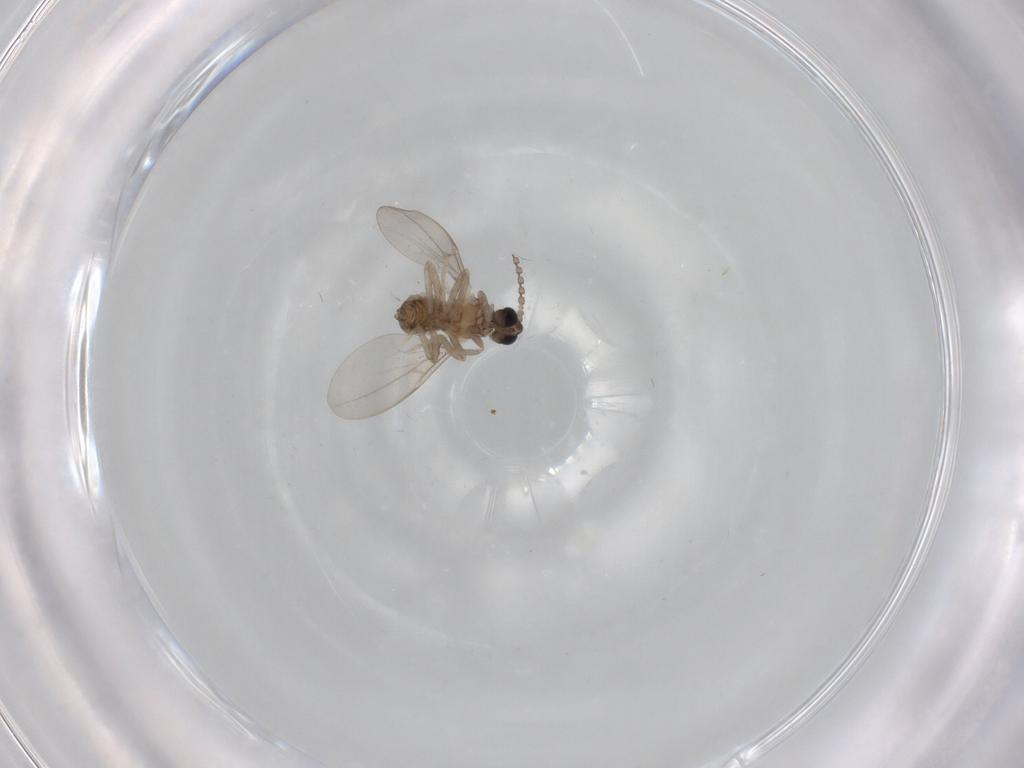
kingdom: Animalia
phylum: Arthropoda
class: Insecta
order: Diptera
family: Cecidomyiidae
